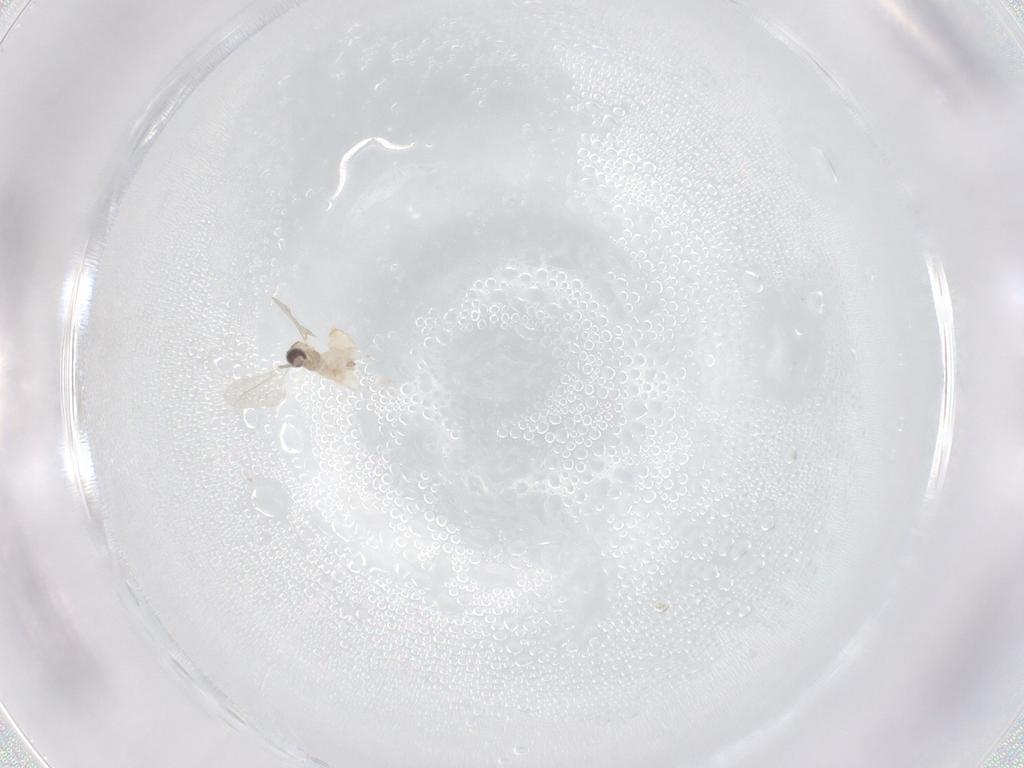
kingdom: Animalia
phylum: Arthropoda
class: Insecta
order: Diptera
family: Cecidomyiidae
